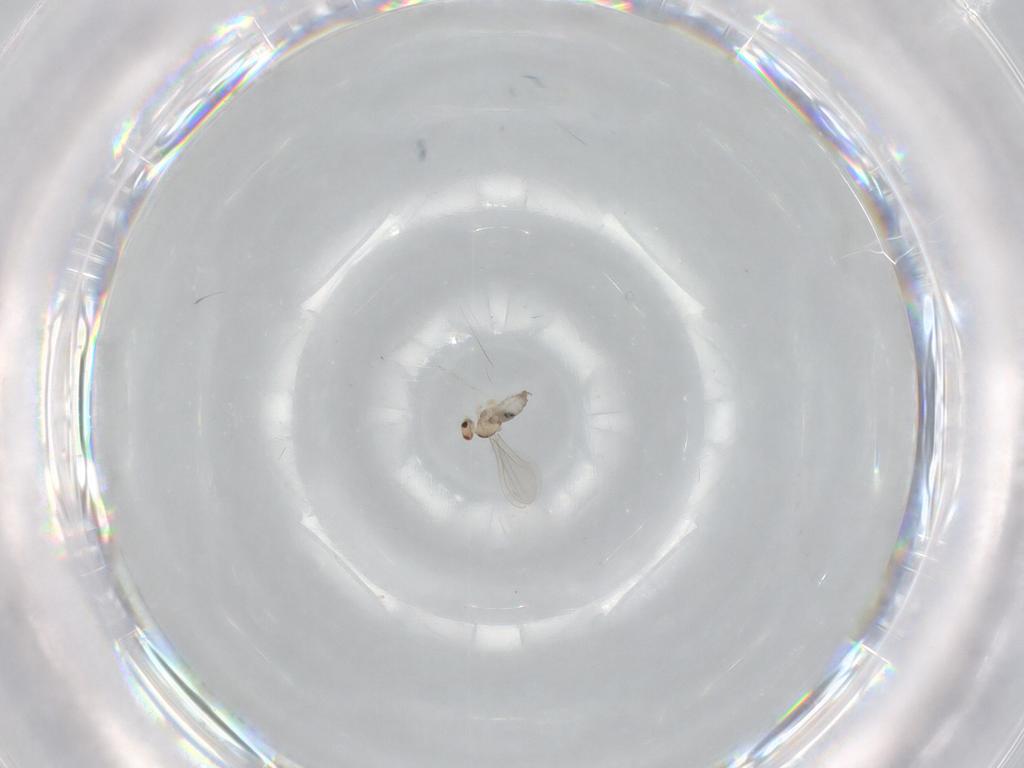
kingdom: Animalia
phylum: Arthropoda
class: Insecta
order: Diptera
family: Cecidomyiidae
